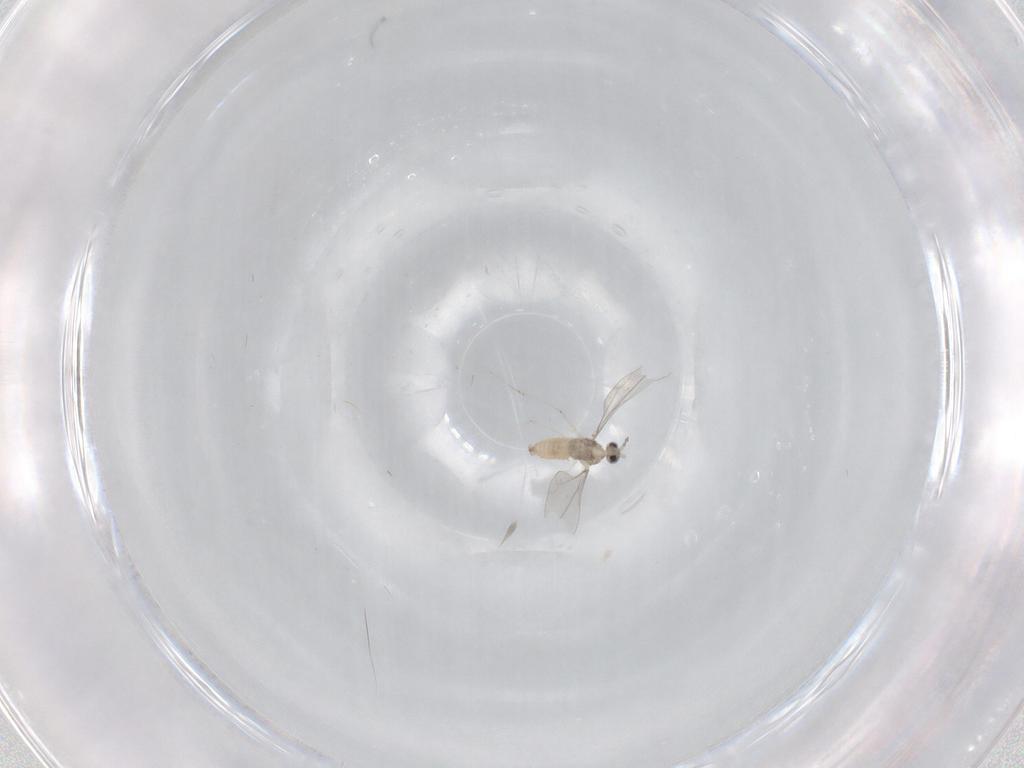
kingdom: Animalia
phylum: Arthropoda
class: Insecta
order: Diptera
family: Cecidomyiidae
